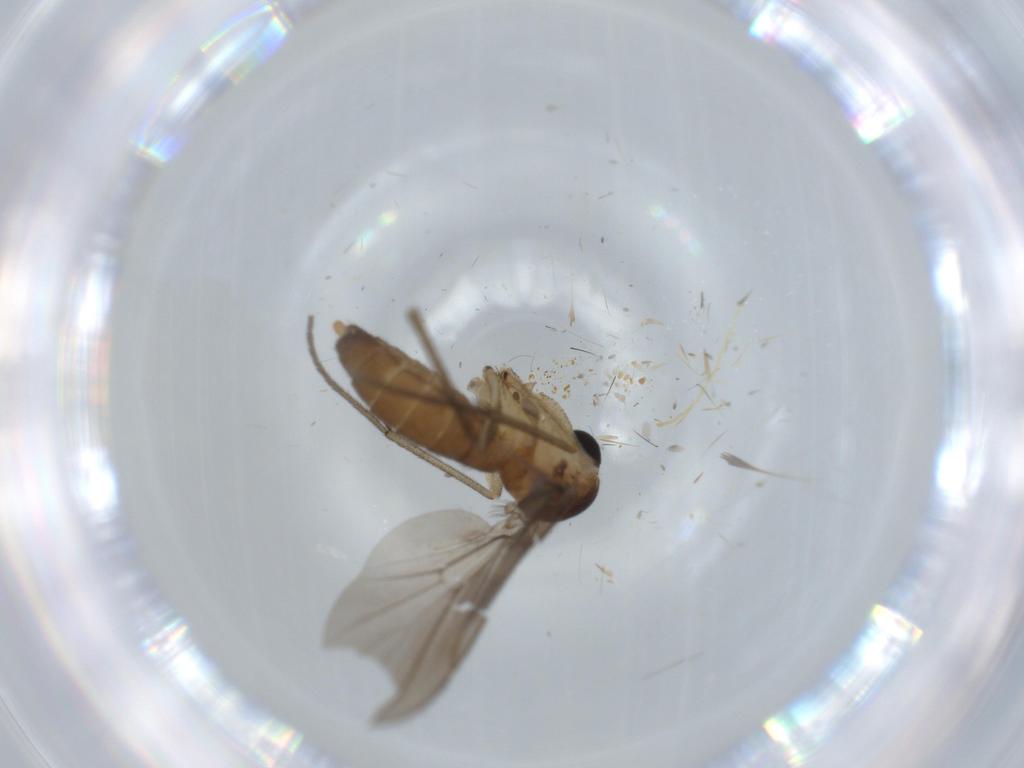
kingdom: Animalia
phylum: Arthropoda
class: Insecta
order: Diptera
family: Diadocidiidae
